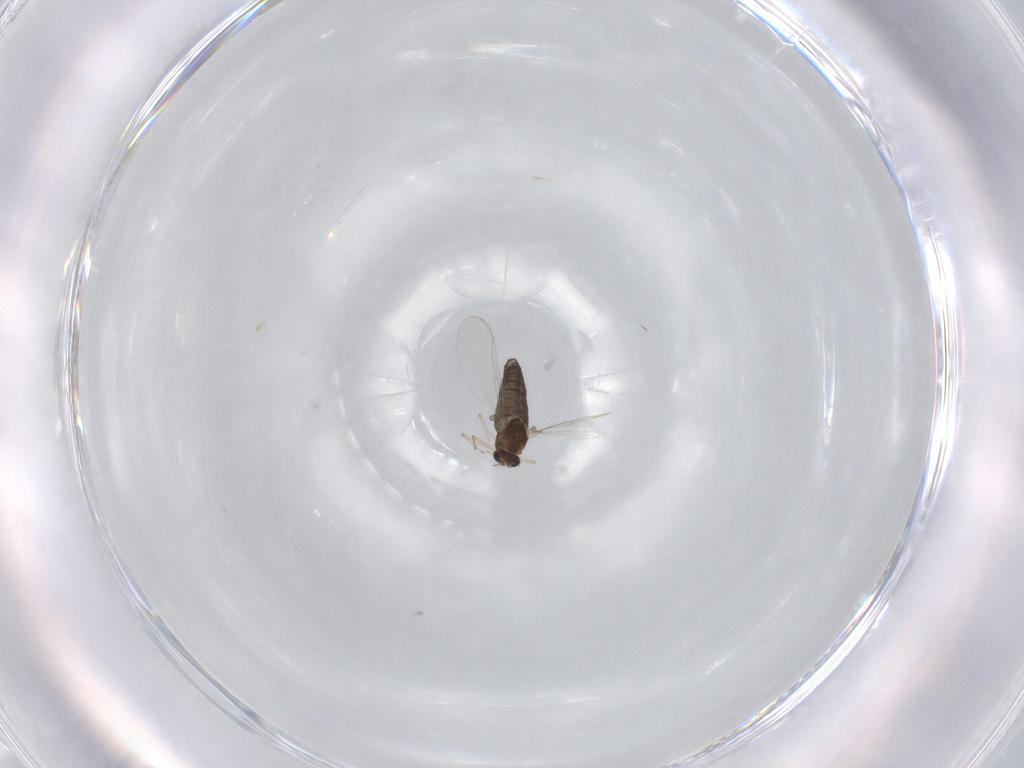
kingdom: Animalia
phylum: Arthropoda
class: Insecta
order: Diptera
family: Chironomidae
